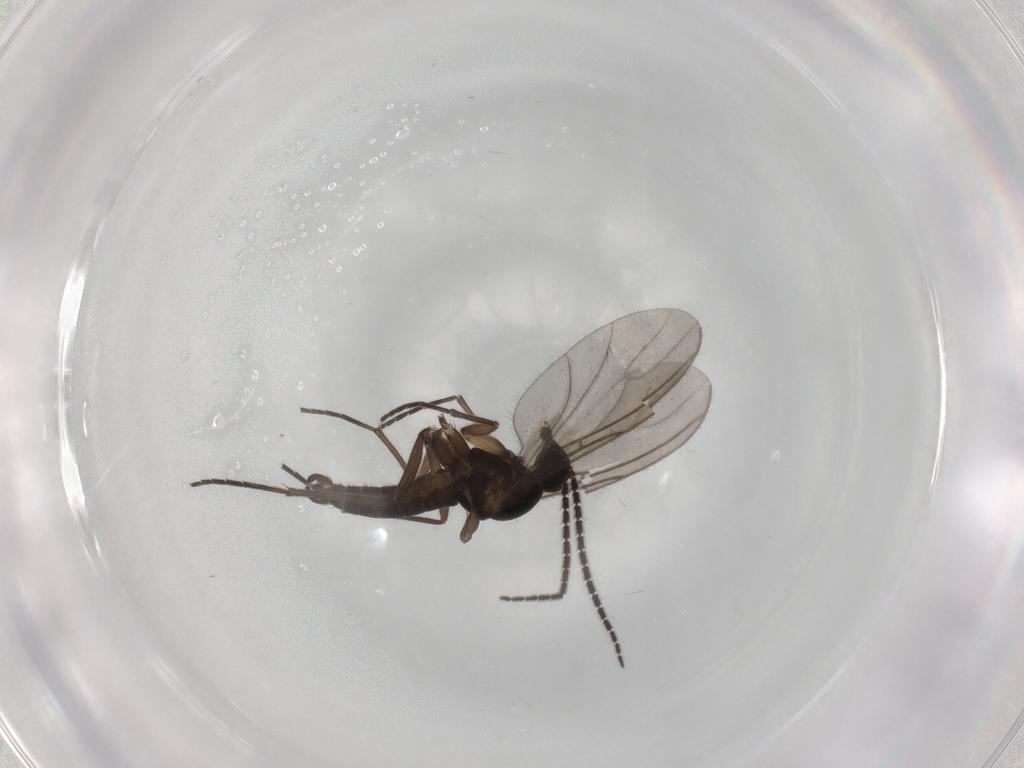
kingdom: Animalia
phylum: Arthropoda
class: Insecta
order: Diptera
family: Sciaridae
